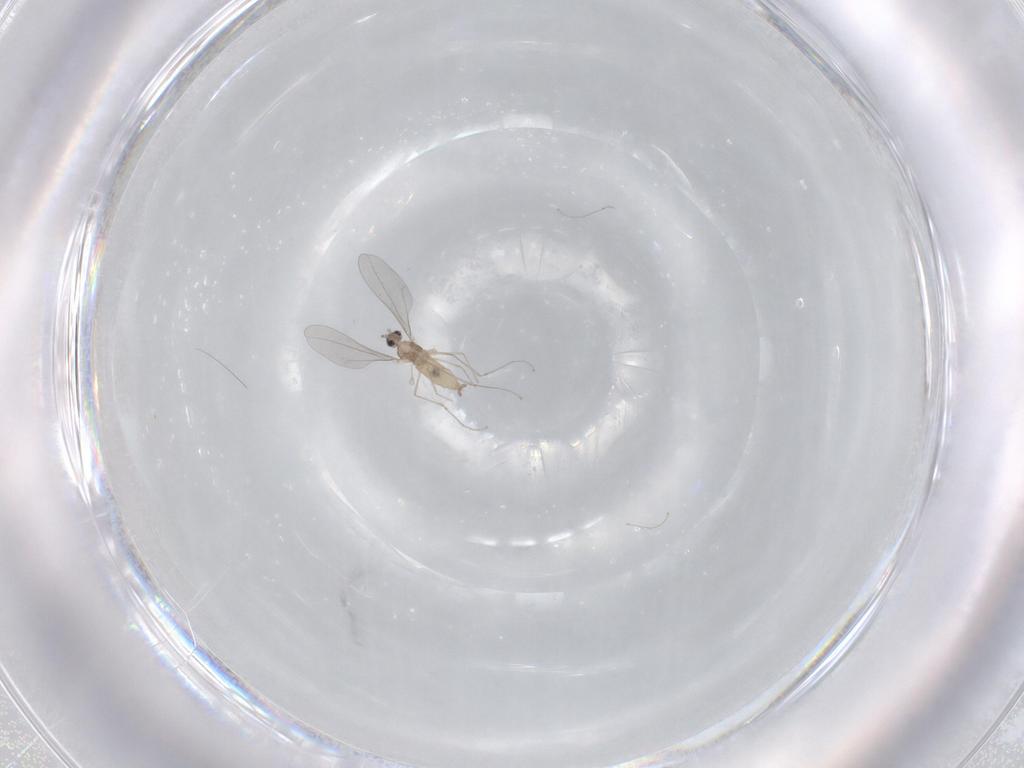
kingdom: Animalia
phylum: Arthropoda
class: Insecta
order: Diptera
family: Cecidomyiidae
